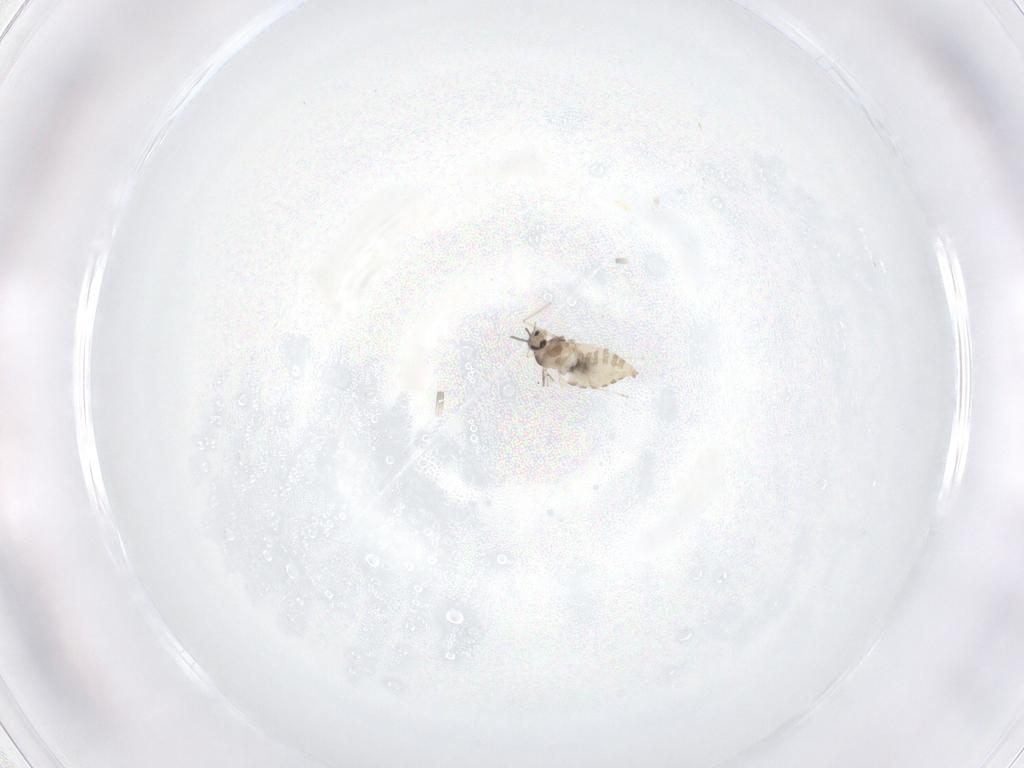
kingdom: Animalia
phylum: Arthropoda
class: Insecta
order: Diptera
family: Cecidomyiidae
